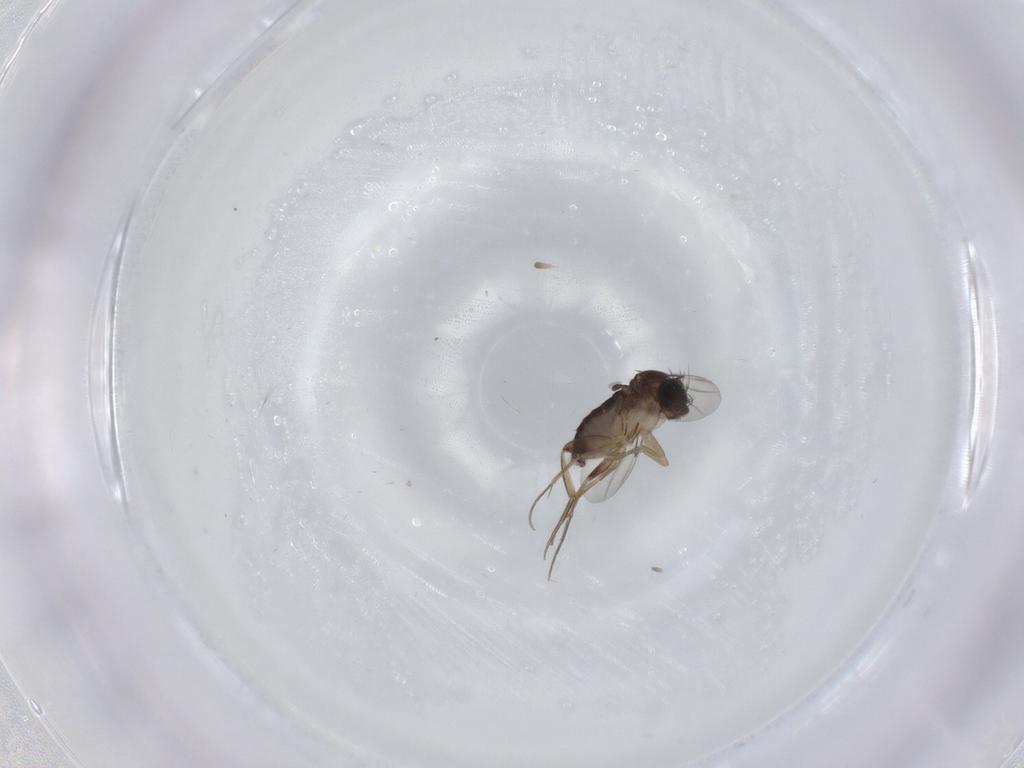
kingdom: Animalia
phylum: Arthropoda
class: Insecta
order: Diptera
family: Phoridae
